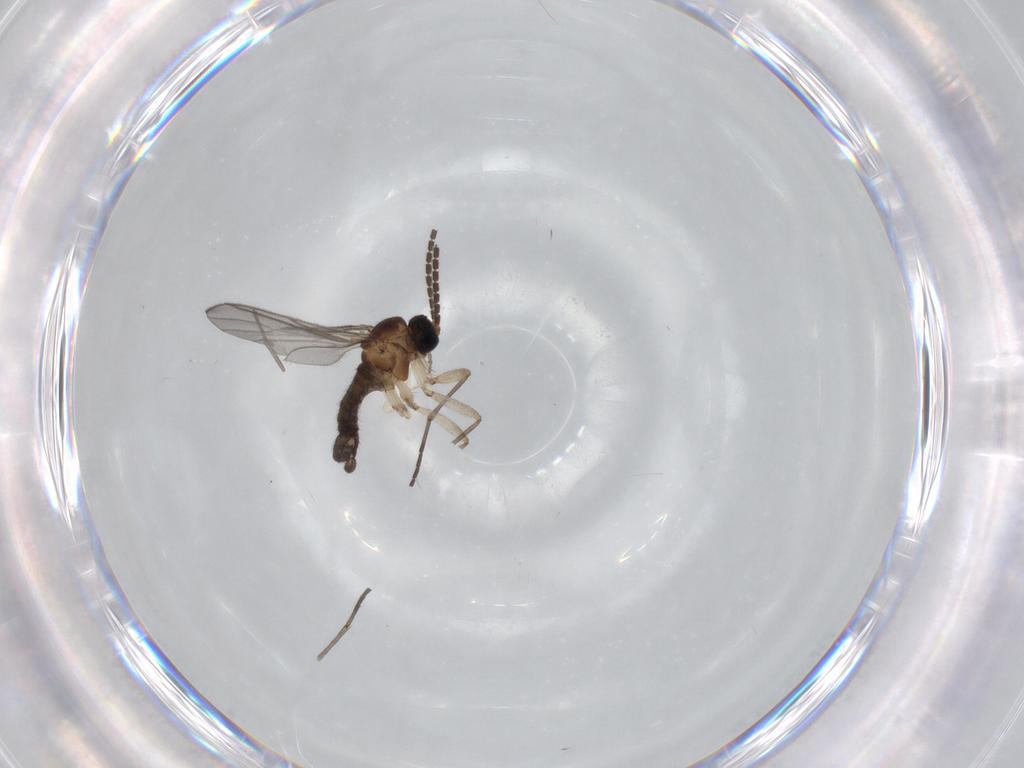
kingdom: Animalia
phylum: Arthropoda
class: Insecta
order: Diptera
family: Sciaridae
